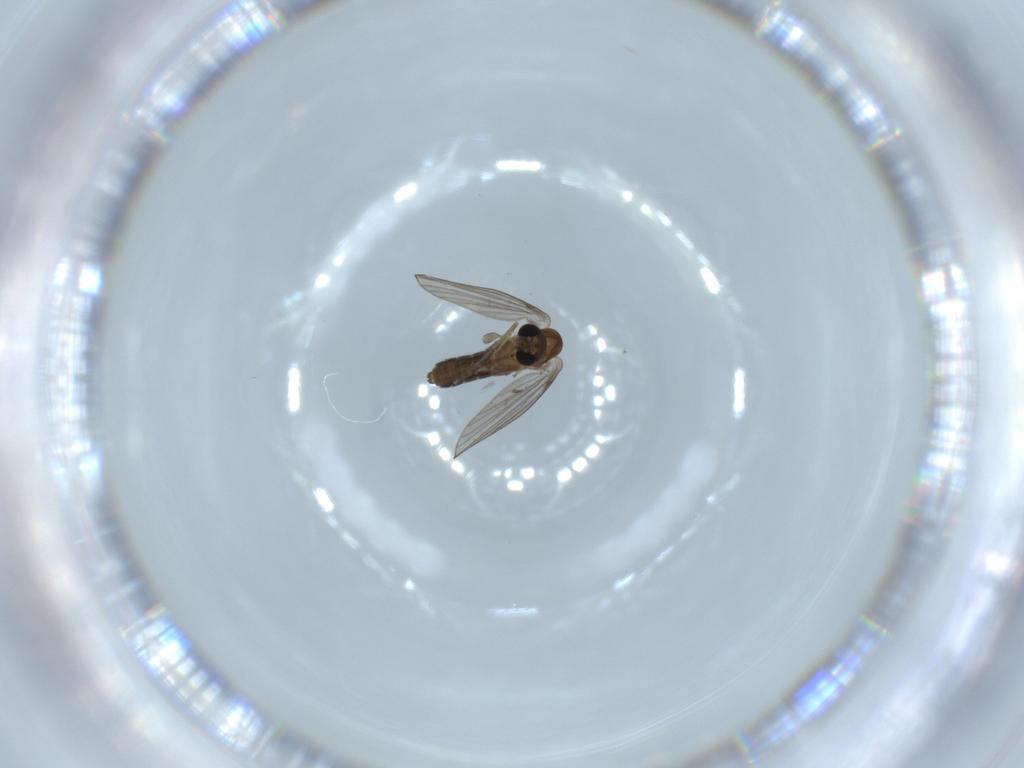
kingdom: Animalia
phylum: Arthropoda
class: Insecta
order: Diptera
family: Psychodidae
